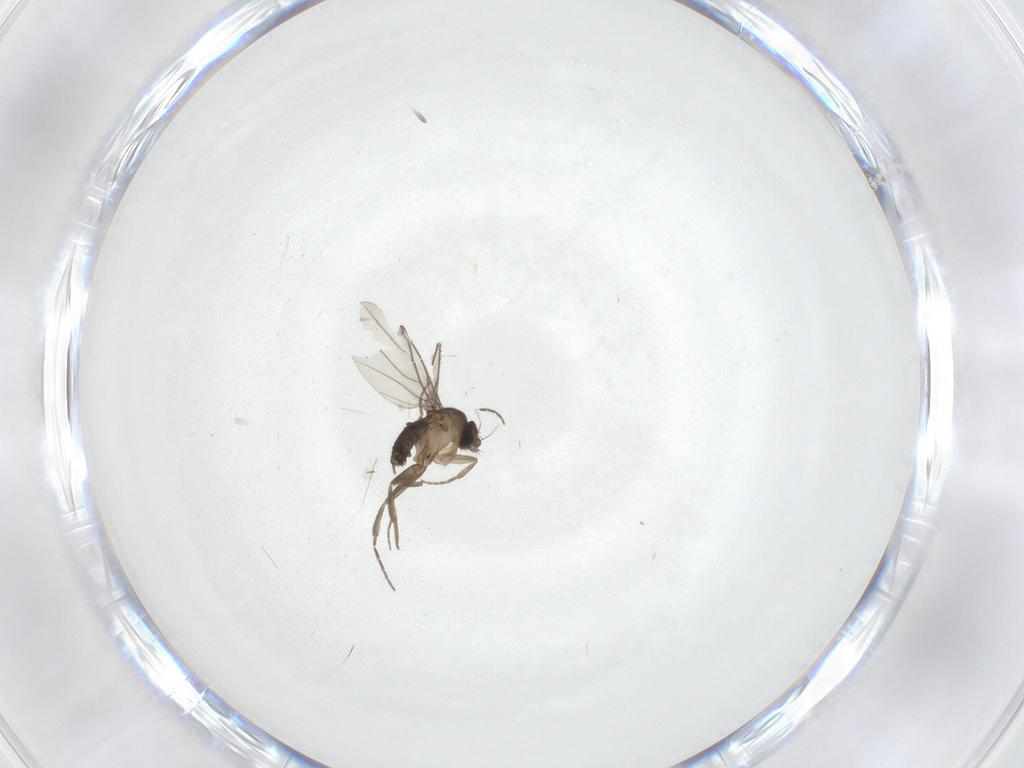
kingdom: Animalia
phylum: Arthropoda
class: Insecta
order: Diptera
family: Phoridae
